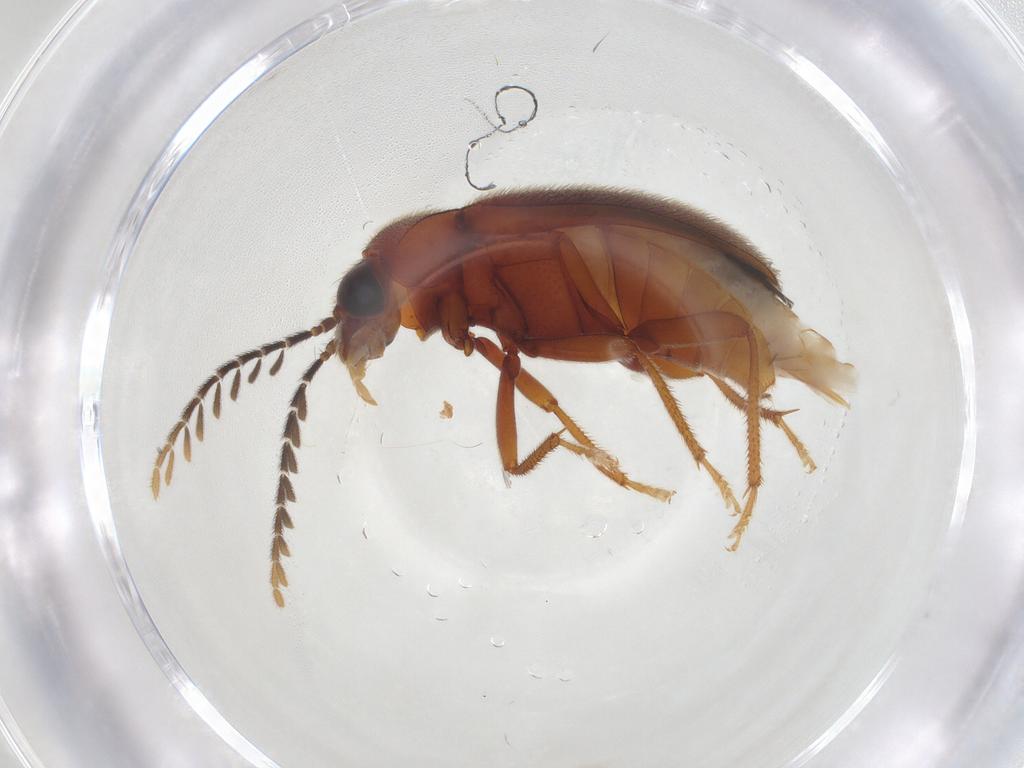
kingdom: Animalia
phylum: Arthropoda
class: Insecta
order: Coleoptera
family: Ptilodactylidae
